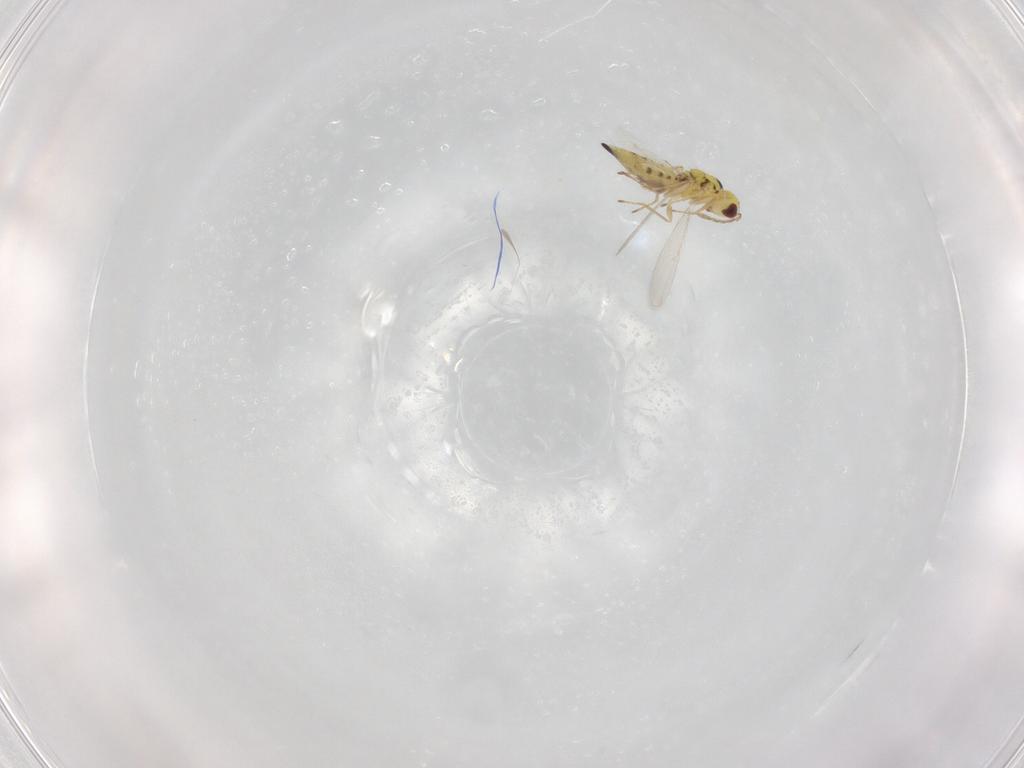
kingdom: Animalia
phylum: Arthropoda
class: Insecta
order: Hymenoptera
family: Eulophidae
